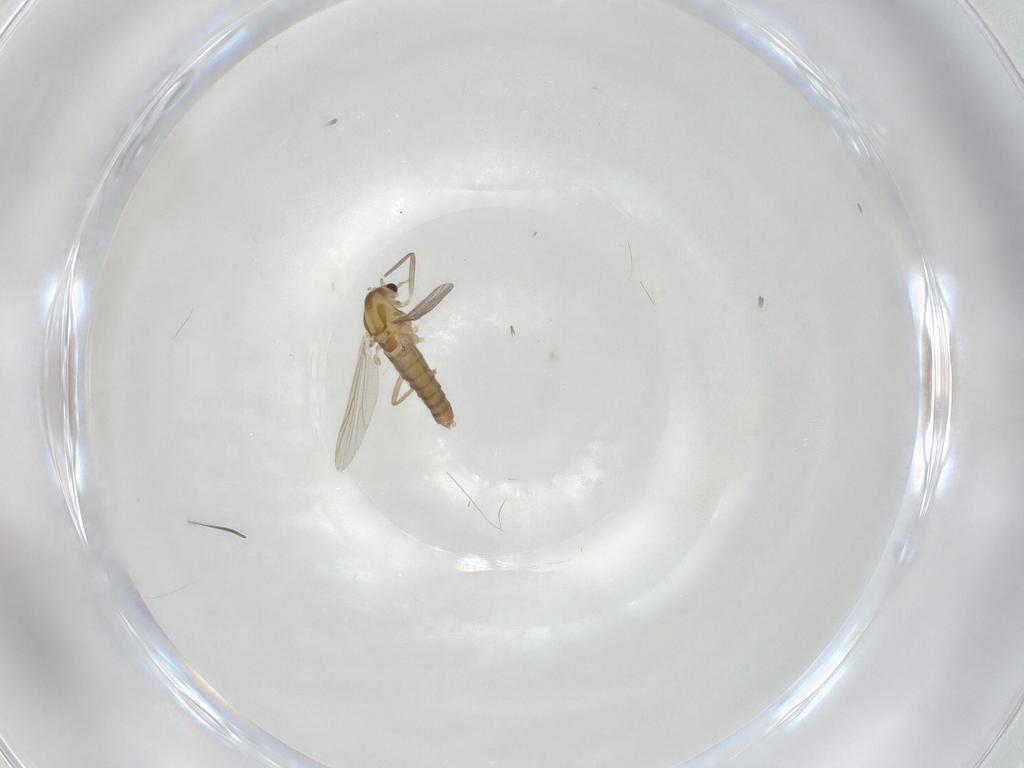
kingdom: Animalia
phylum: Arthropoda
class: Insecta
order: Diptera
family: Chironomidae
